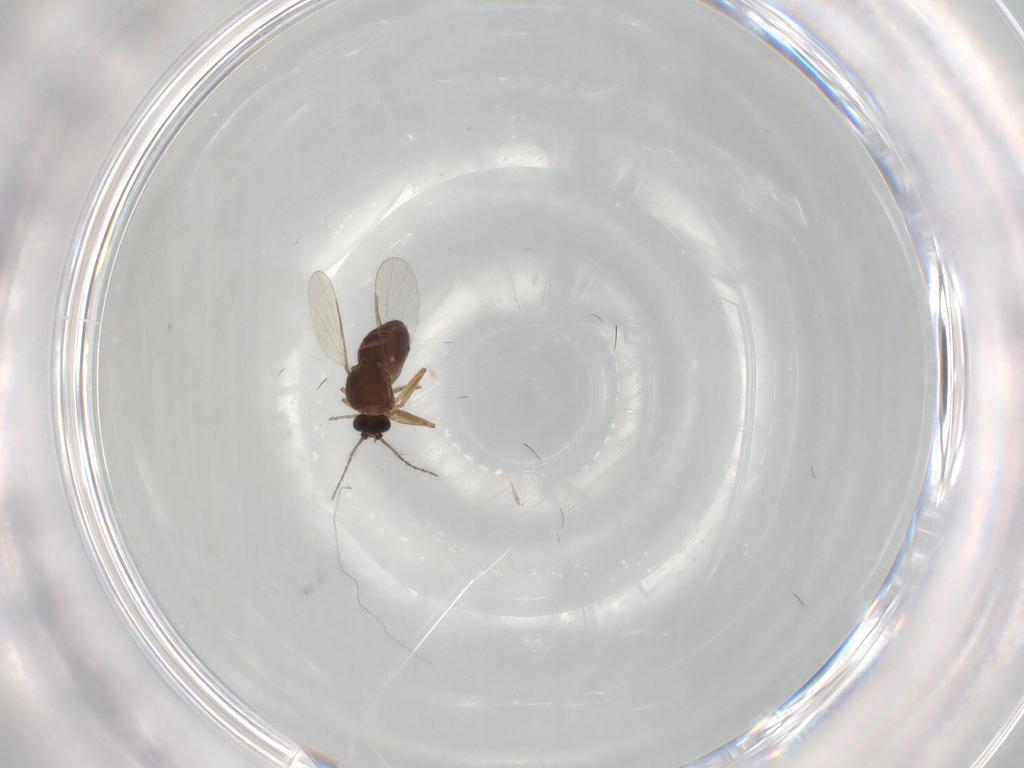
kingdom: Animalia
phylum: Arthropoda
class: Insecta
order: Diptera
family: Ceratopogonidae
